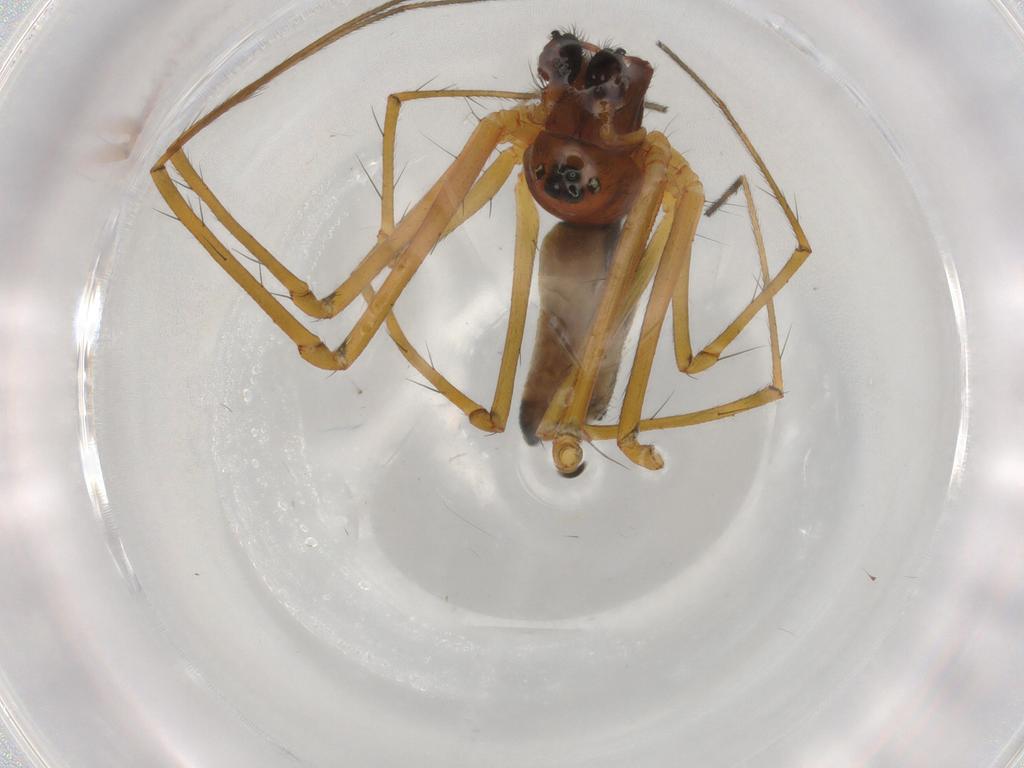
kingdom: Animalia
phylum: Arthropoda
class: Arachnida
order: Araneae
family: Theridiidae
